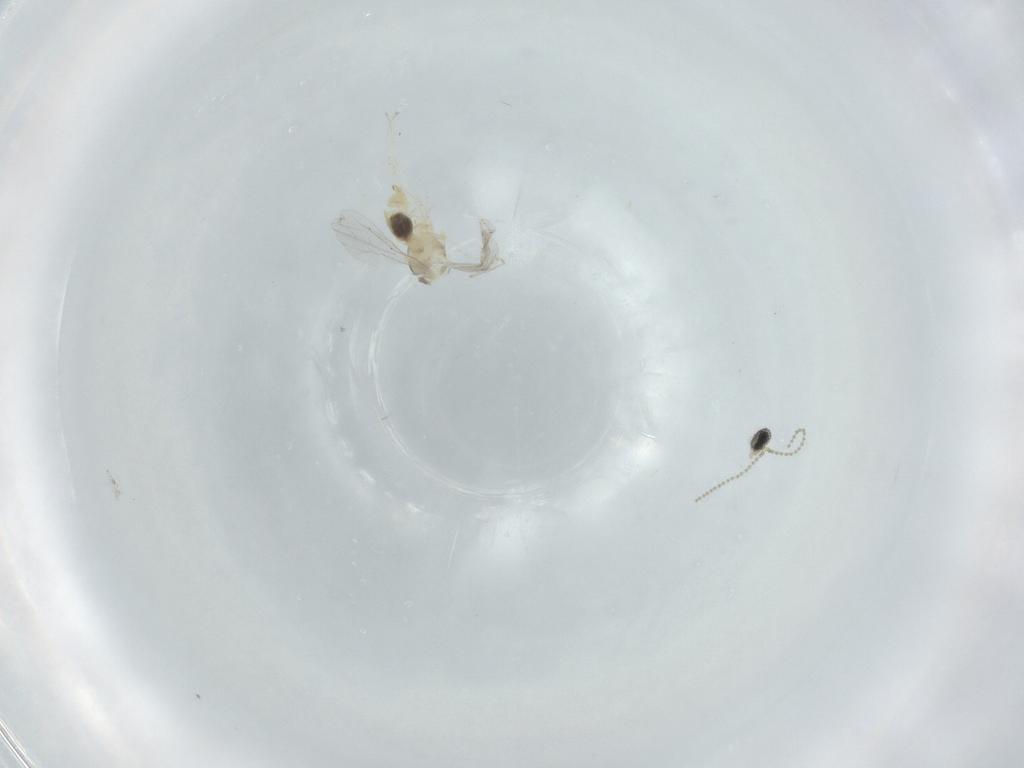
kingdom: Animalia
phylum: Arthropoda
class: Insecta
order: Diptera
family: Cecidomyiidae
